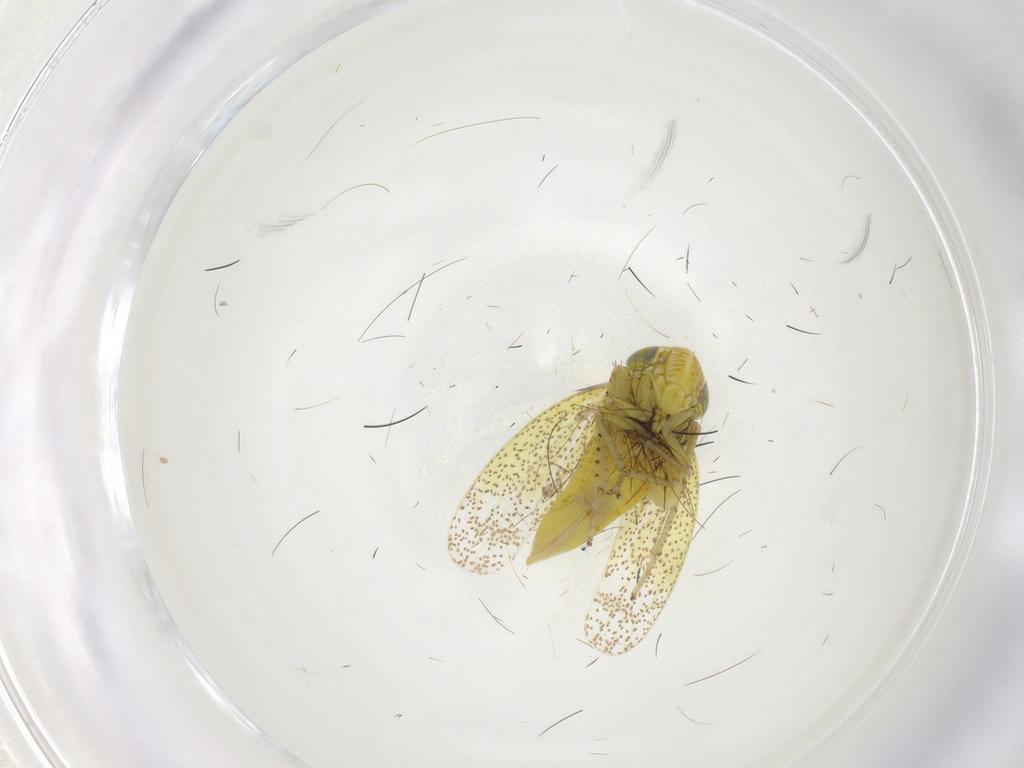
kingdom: Animalia
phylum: Arthropoda
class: Insecta
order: Hemiptera
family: Cicadellidae
